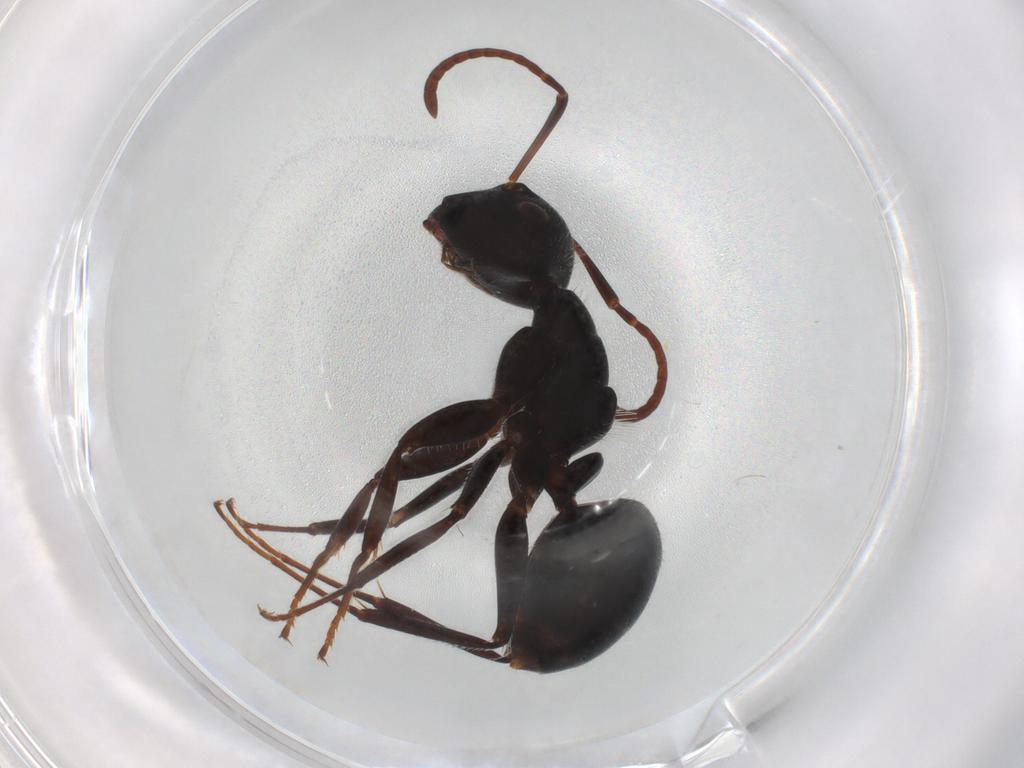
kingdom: Animalia
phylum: Arthropoda
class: Insecta
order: Hymenoptera
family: Formicidae
